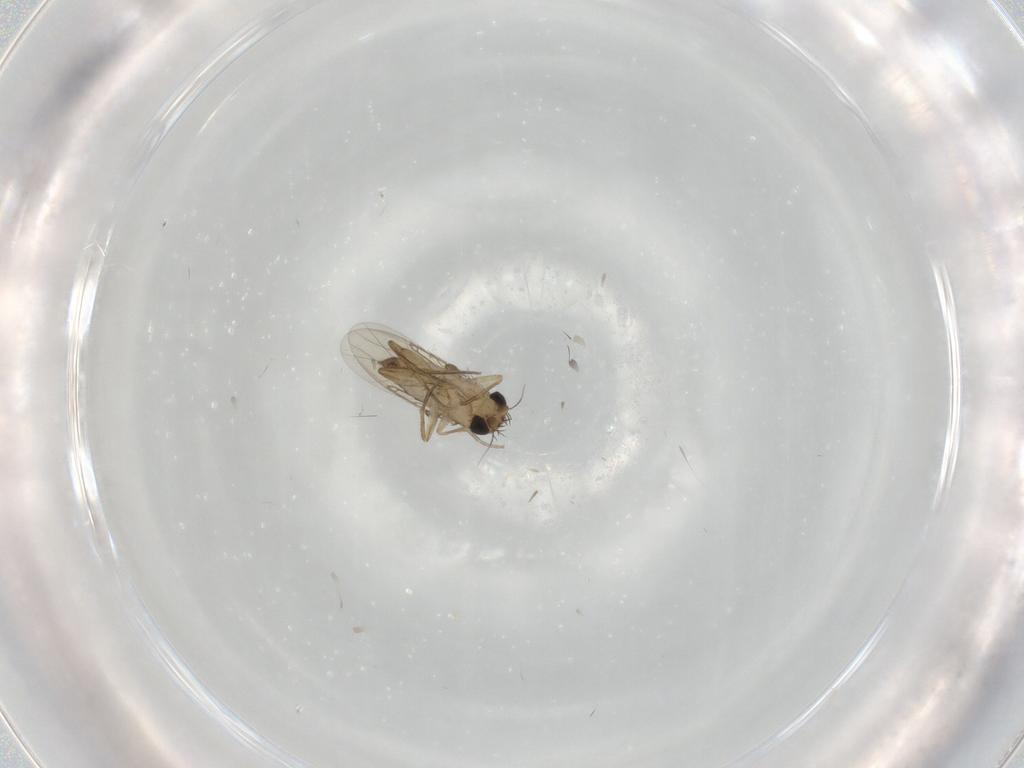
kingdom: Animalia
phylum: Arthropoda
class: Insecta
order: Diptera
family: Phoridae
